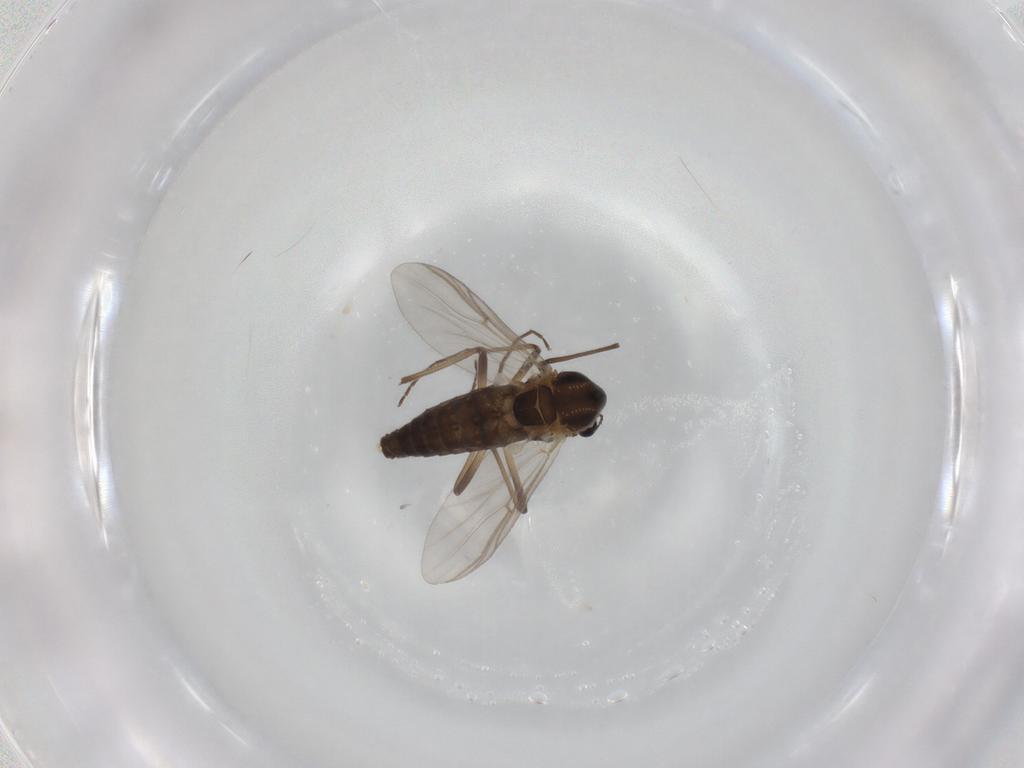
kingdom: Animalia
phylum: Arthropoda
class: Insecta
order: Diptera
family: Chironomidae
